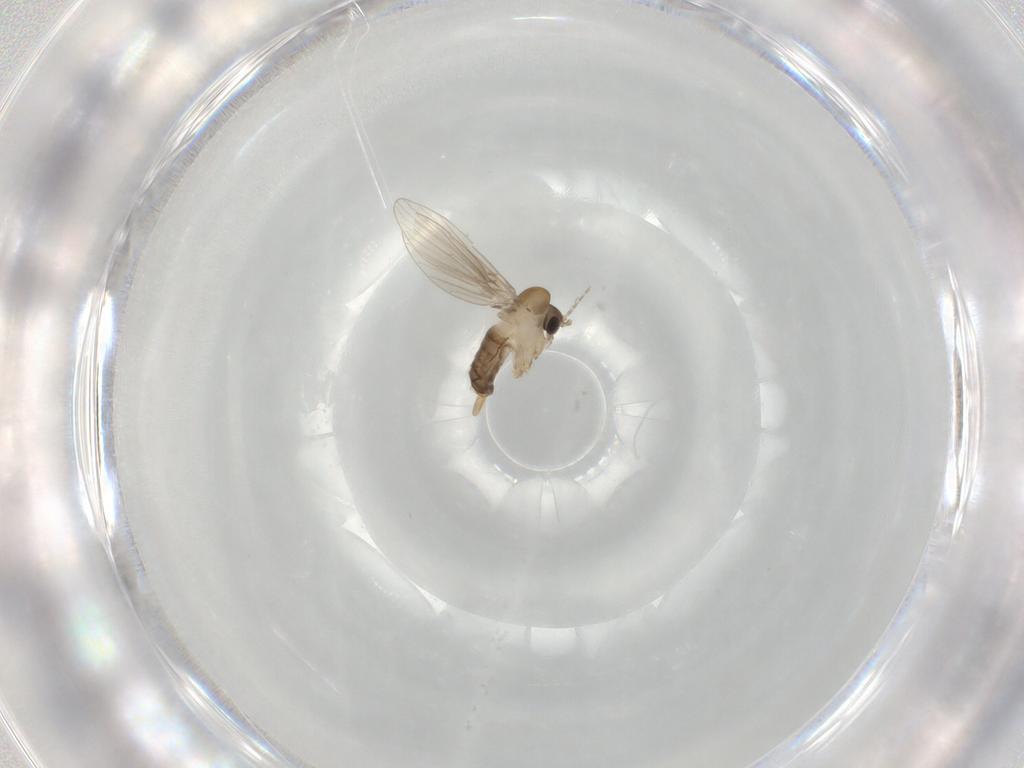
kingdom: Animalia
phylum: Arthropoda
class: Insecta
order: Diptera
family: Psychodidae
